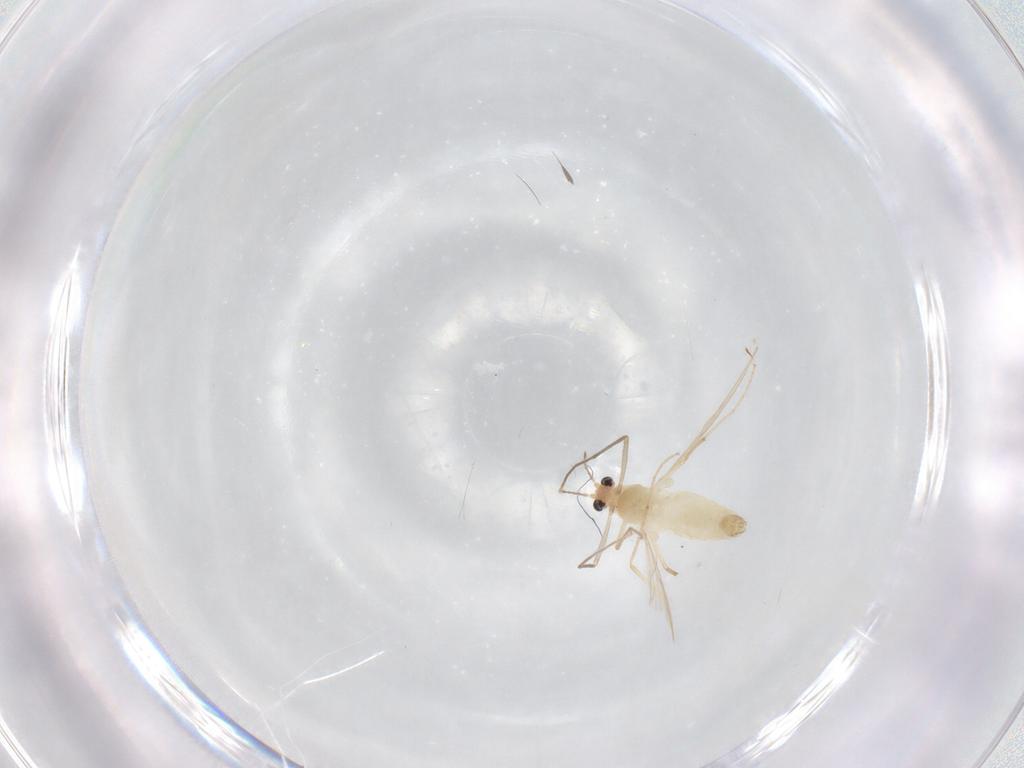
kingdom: Animalia
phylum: Arthropoda
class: Insecta
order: Diptera
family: Chironomidae
